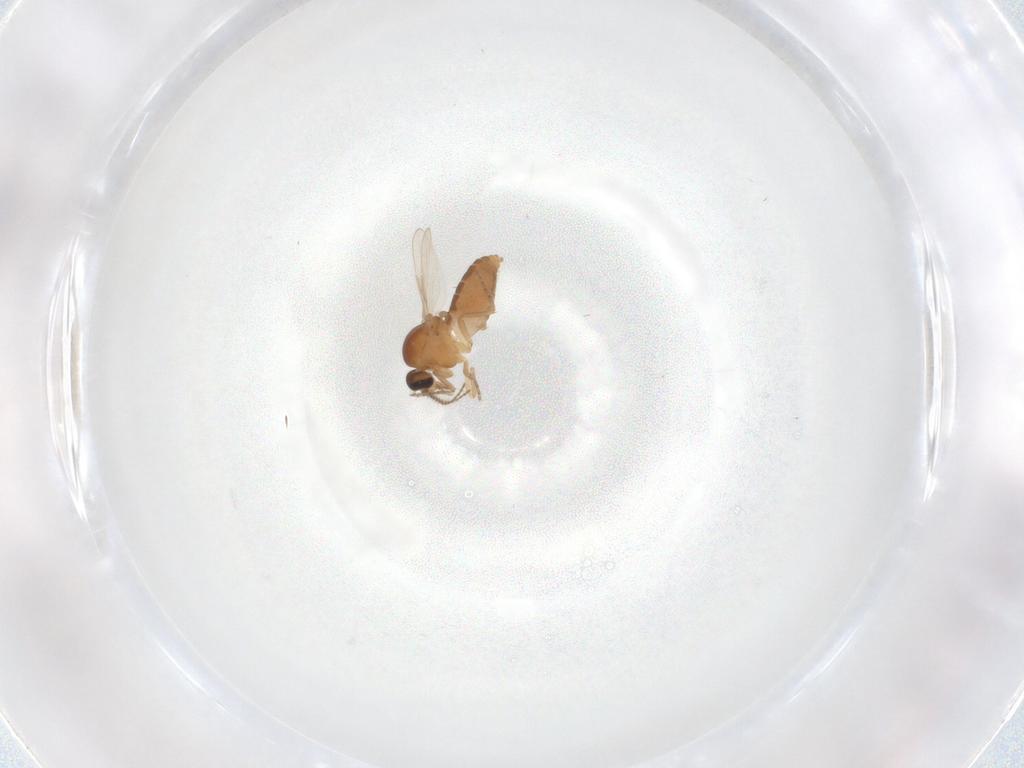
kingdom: Animalia
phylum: Arthropoda
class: Insecta
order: Diptera
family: Ceratopogonidae
